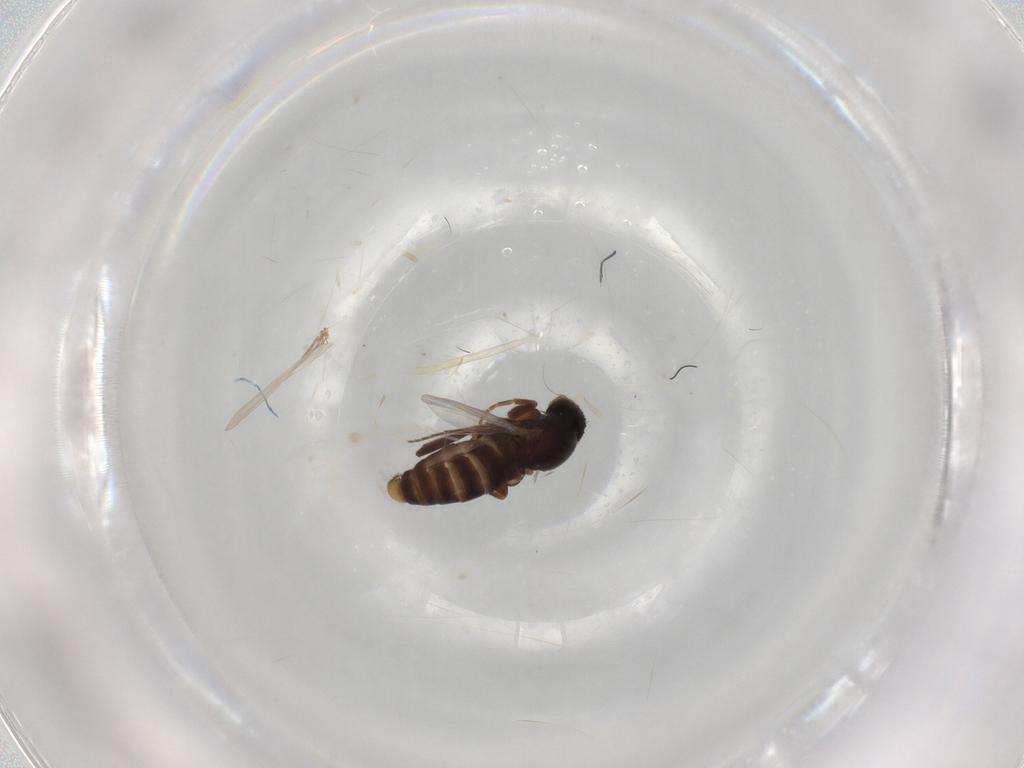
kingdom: Animalia
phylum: Arthropoda
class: Insecta
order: Diptera
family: Phoridae
